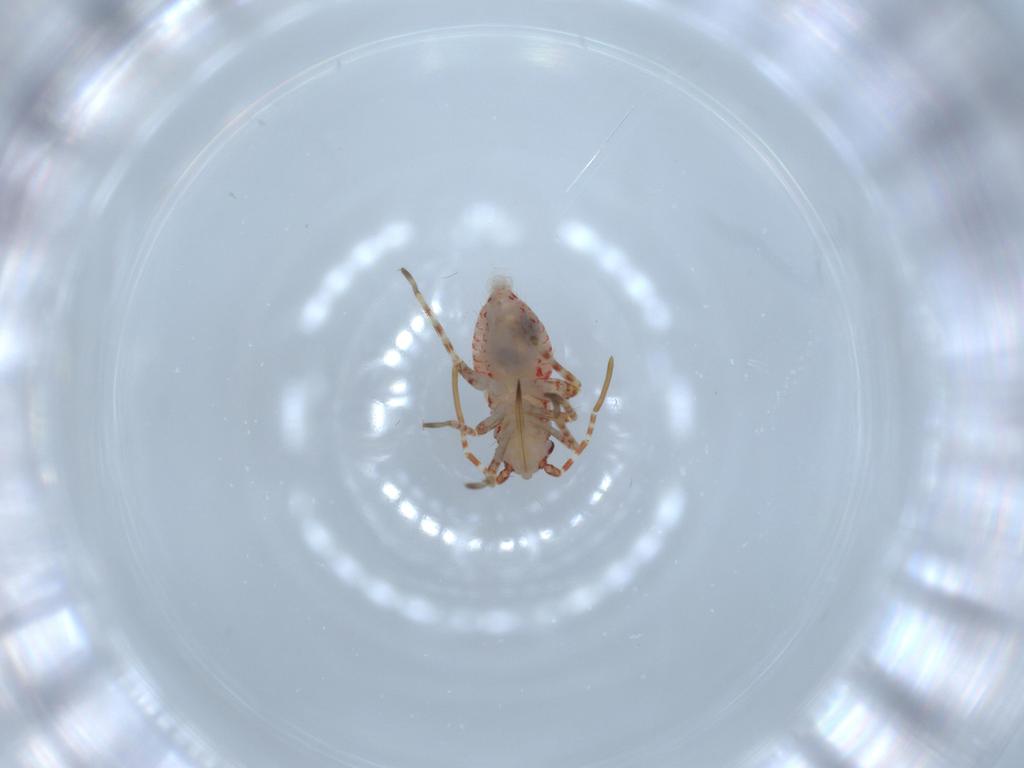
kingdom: Animalia
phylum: Arthropoda
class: Insecta
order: Hemiptera
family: Miridae
